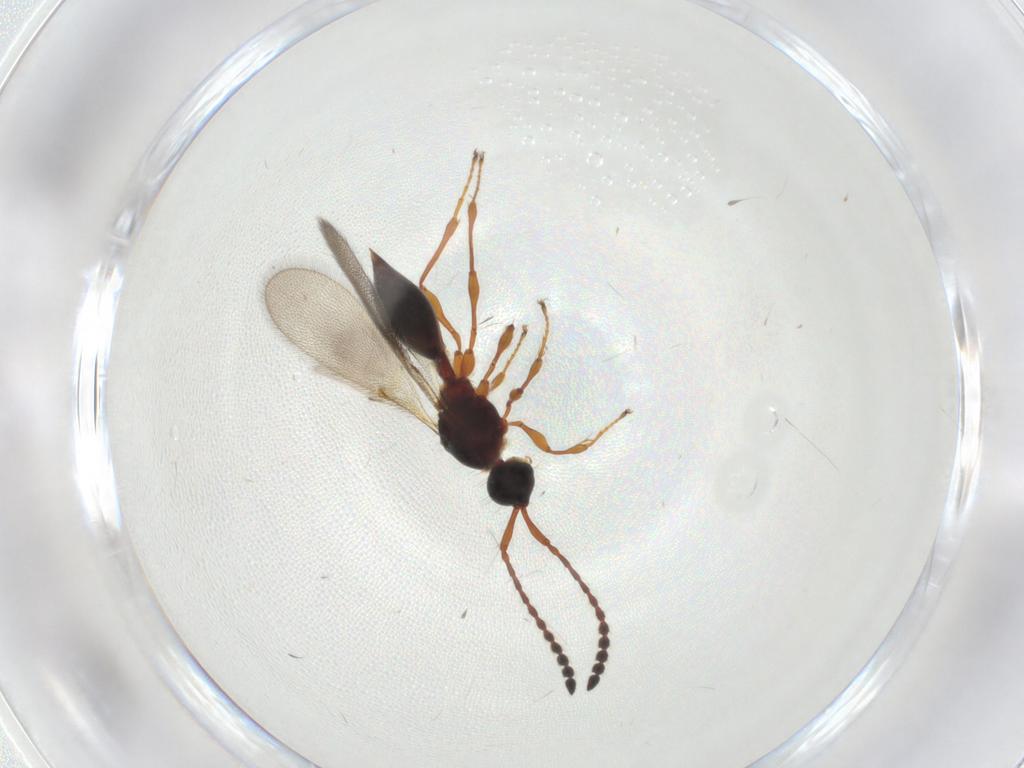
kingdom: Animalia
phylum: Arthropoda
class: Insecta
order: Hymenoptera
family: Diapriidae
